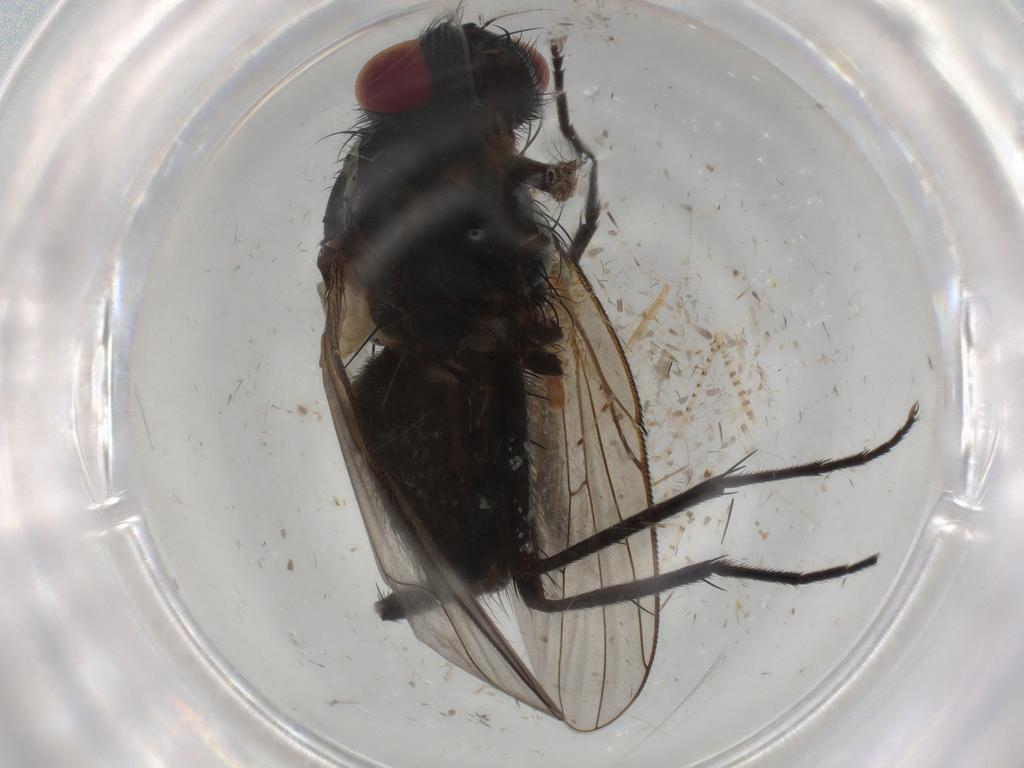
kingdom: Animalia
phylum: Arthropoda
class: Insecta
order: Diptera
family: Muscidae
